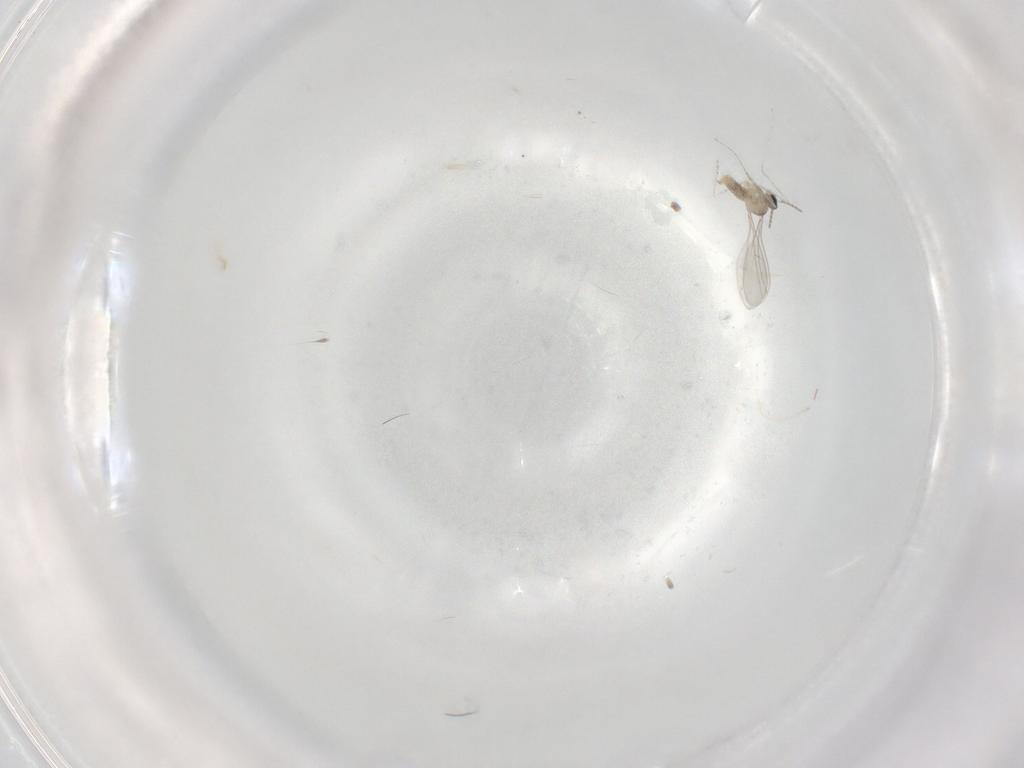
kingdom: Animalia
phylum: Arthropoda
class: Insecta
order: Diptera
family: Cecidomyiidae
